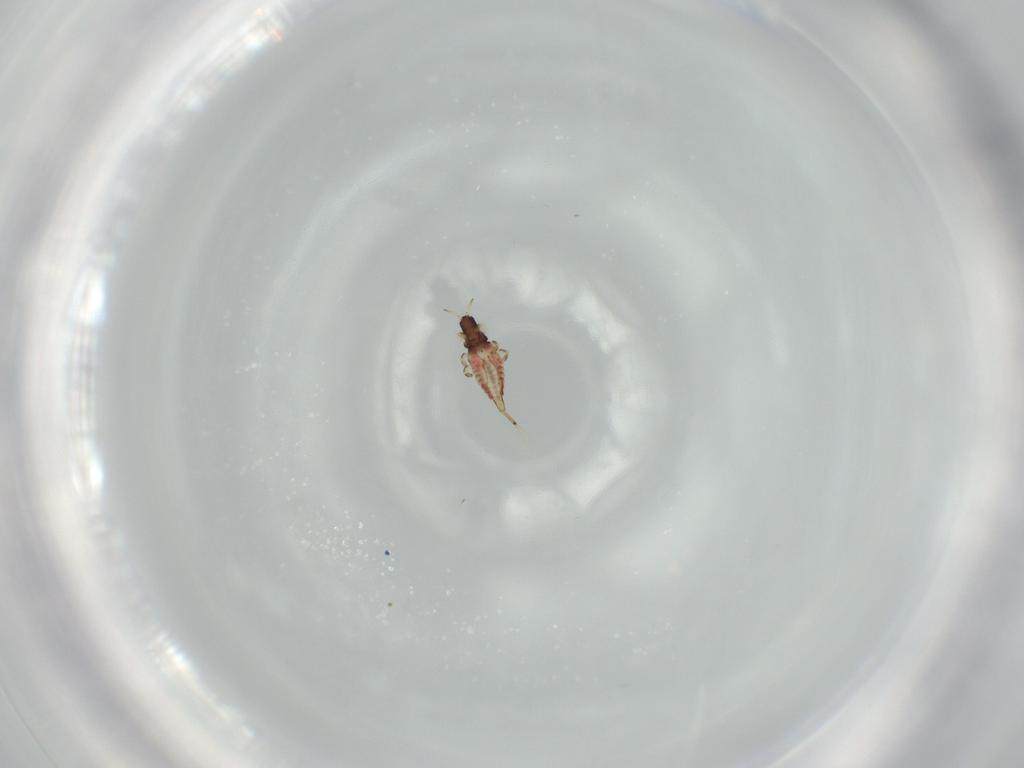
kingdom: Animalia
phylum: Arthropoda
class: Insecta
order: Thysanoptera
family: Phlaeothripidae
